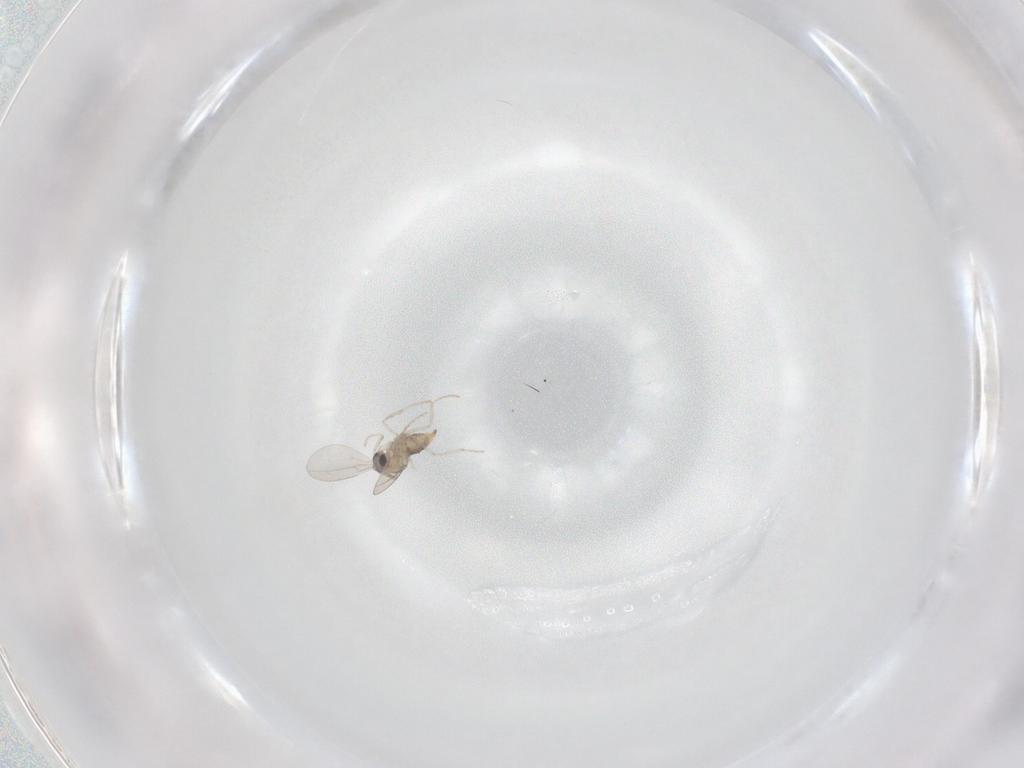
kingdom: Animalia
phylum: Arthropoda
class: Insecta
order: Diptera
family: Cecidomyiidae
